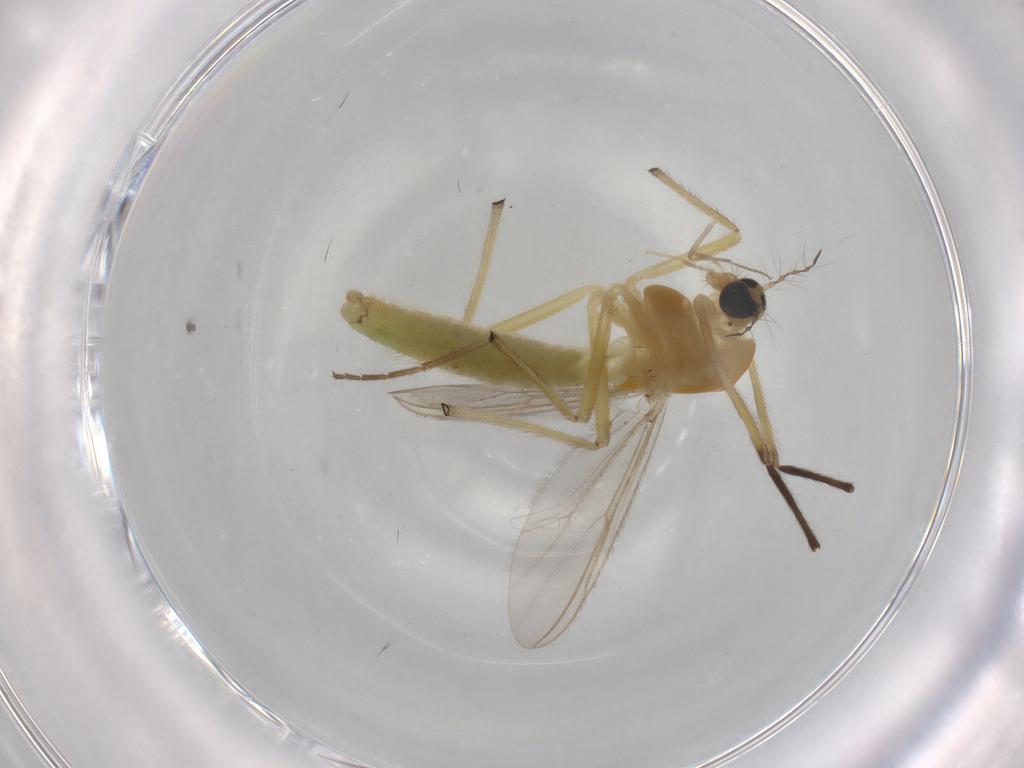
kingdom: Animalia
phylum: Arthropoda
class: Insecta
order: Diptera
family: Chironomidae
